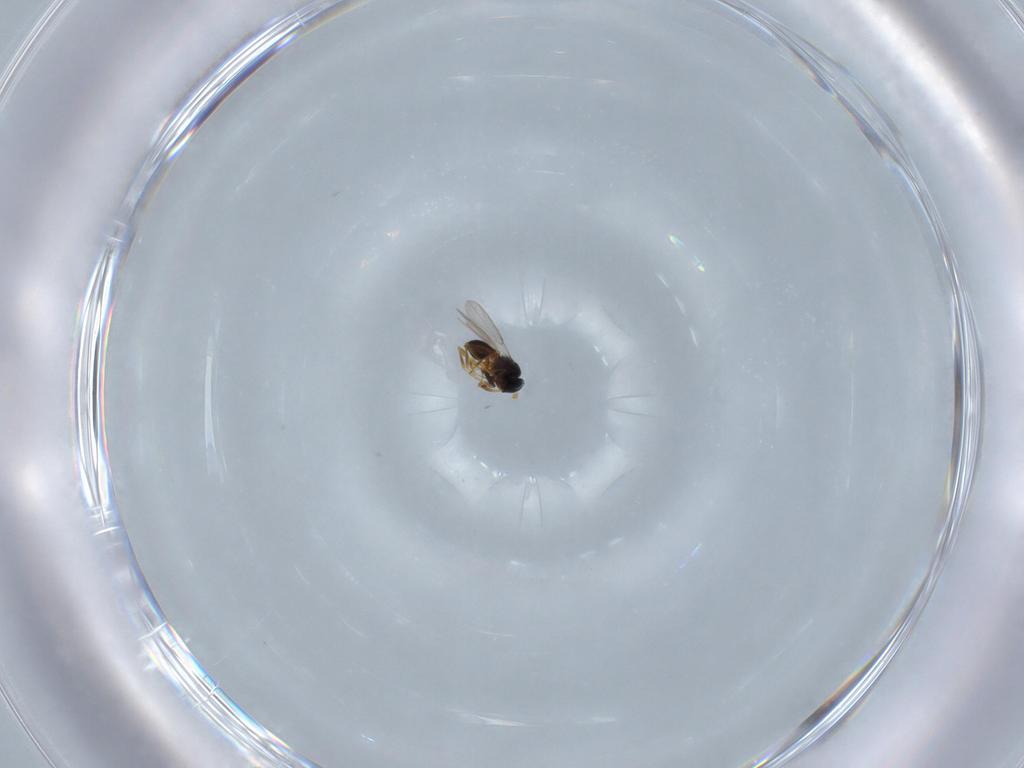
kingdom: Animalia
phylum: Arthropoda
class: Insecta
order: Hymenoptera
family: Platygastridae
